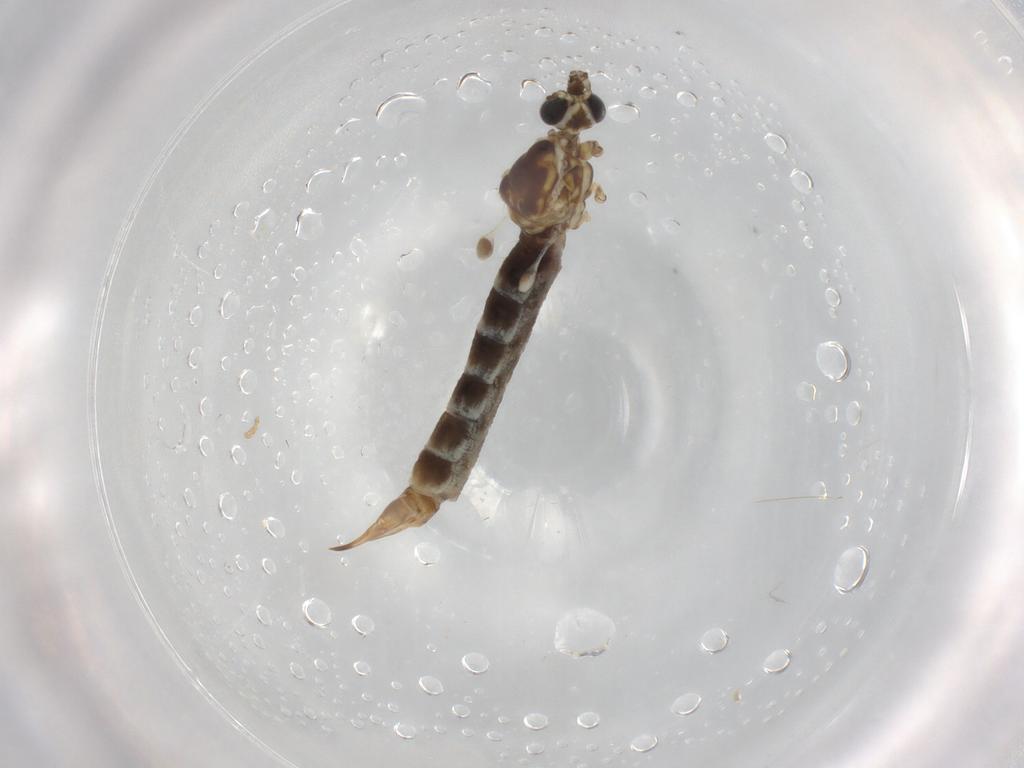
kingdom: Animalia
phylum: Arthropoda
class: Insecta
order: Diptera
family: Limoniidae
